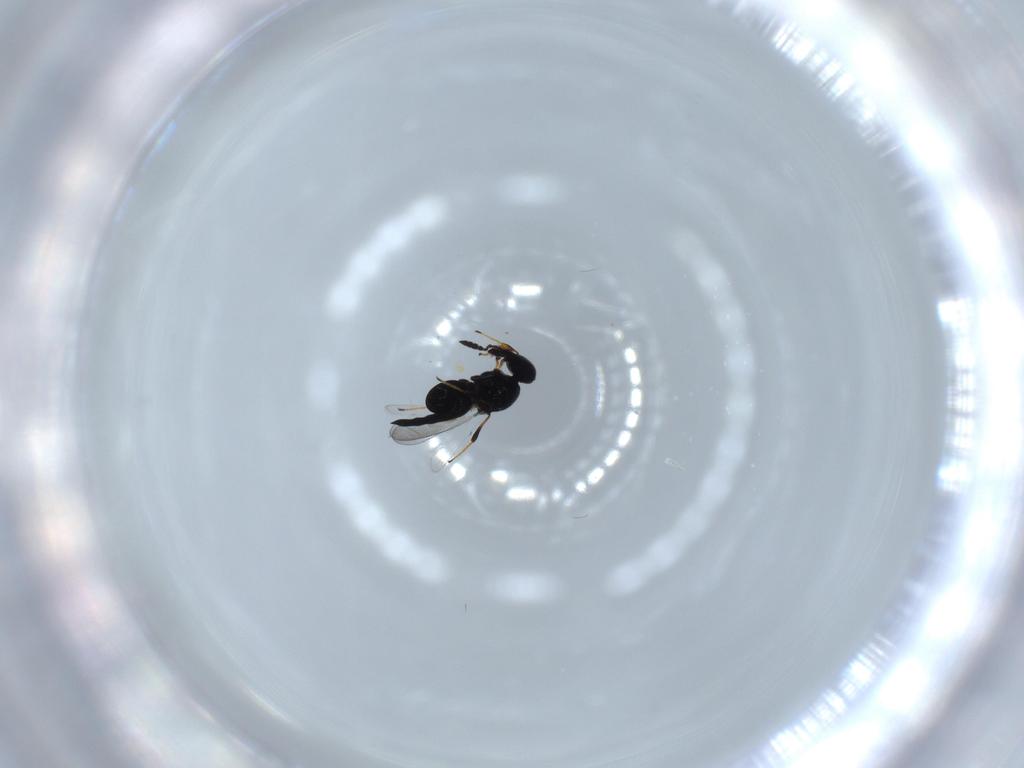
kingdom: Animalia
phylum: Arthropoda
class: Insecta
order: Hymenoptera
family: Platygastridae
